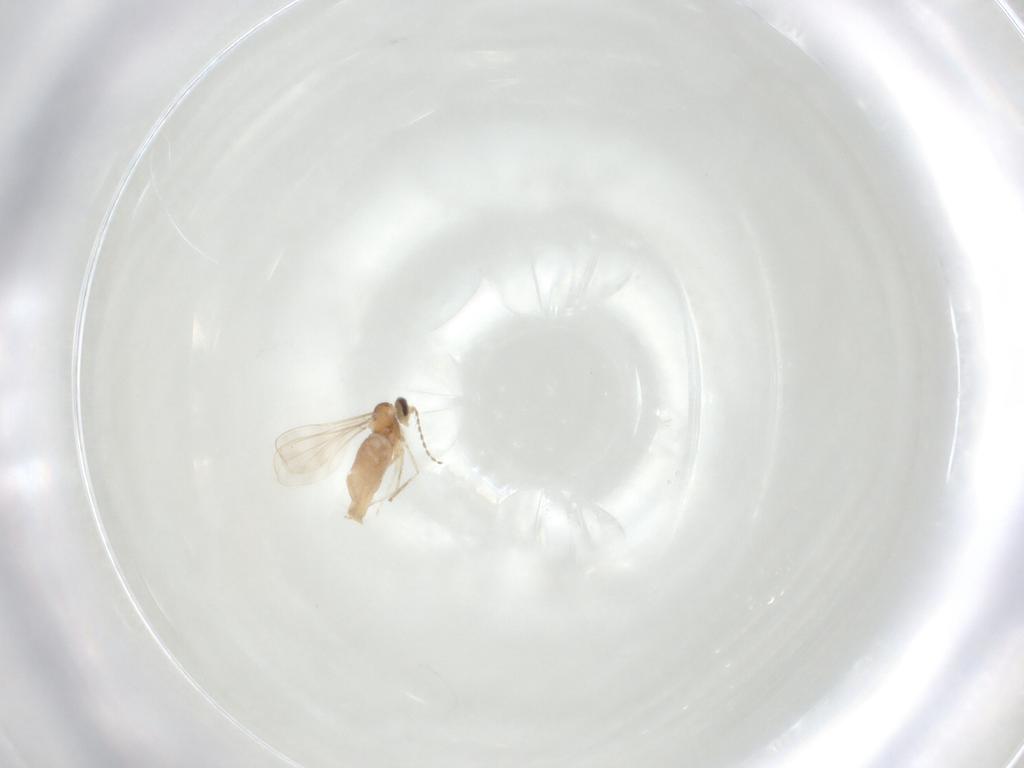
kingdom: Animalia
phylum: Arthropoda
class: Insecta
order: Diptera
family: Cecidomyiidae
